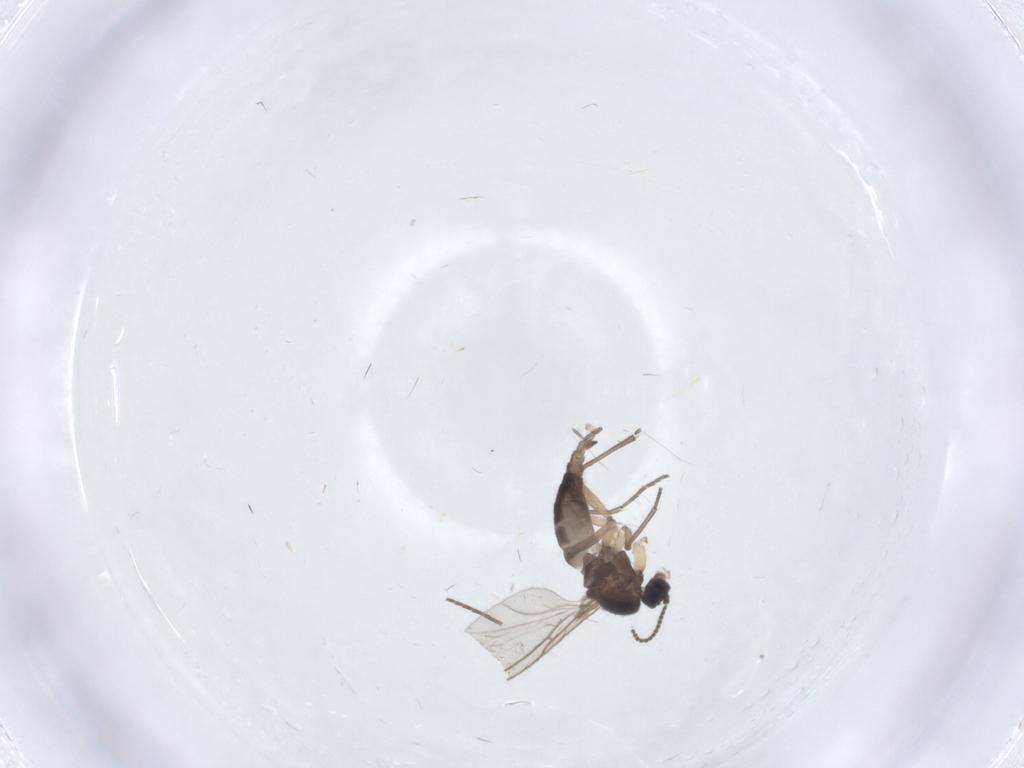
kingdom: Animalia
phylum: Arthropoda
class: Insecta
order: Diptera
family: Sciaridae
